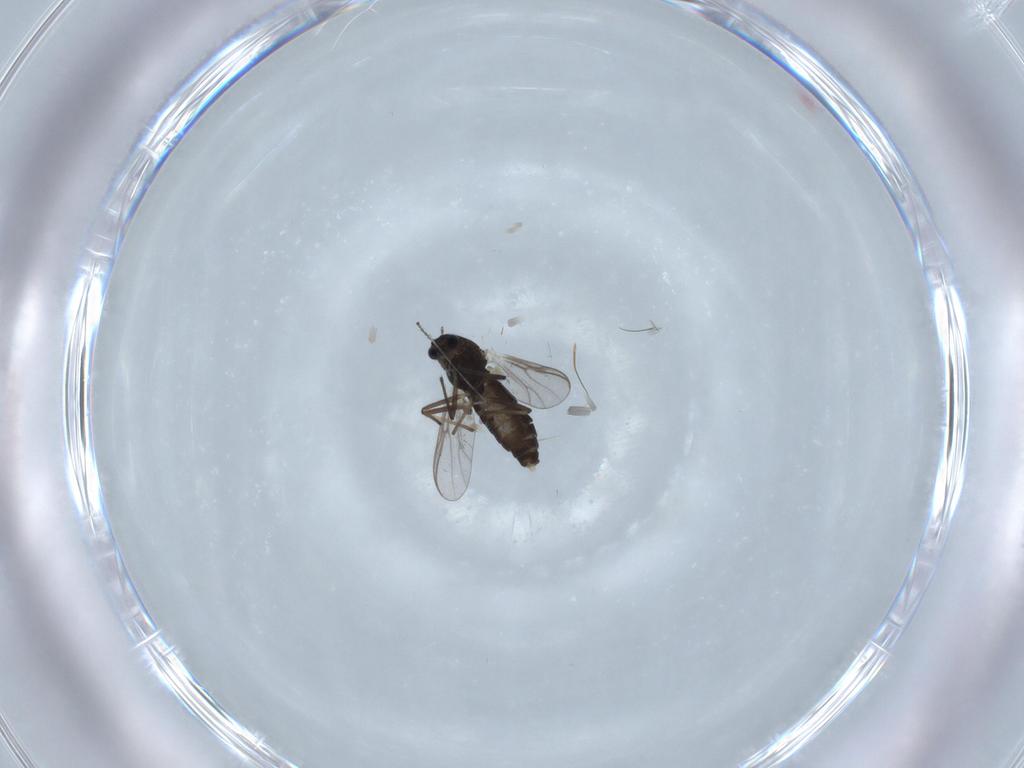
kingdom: Animalia
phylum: Arthropoda
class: Insecta
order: Diptera
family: Chironomidae
